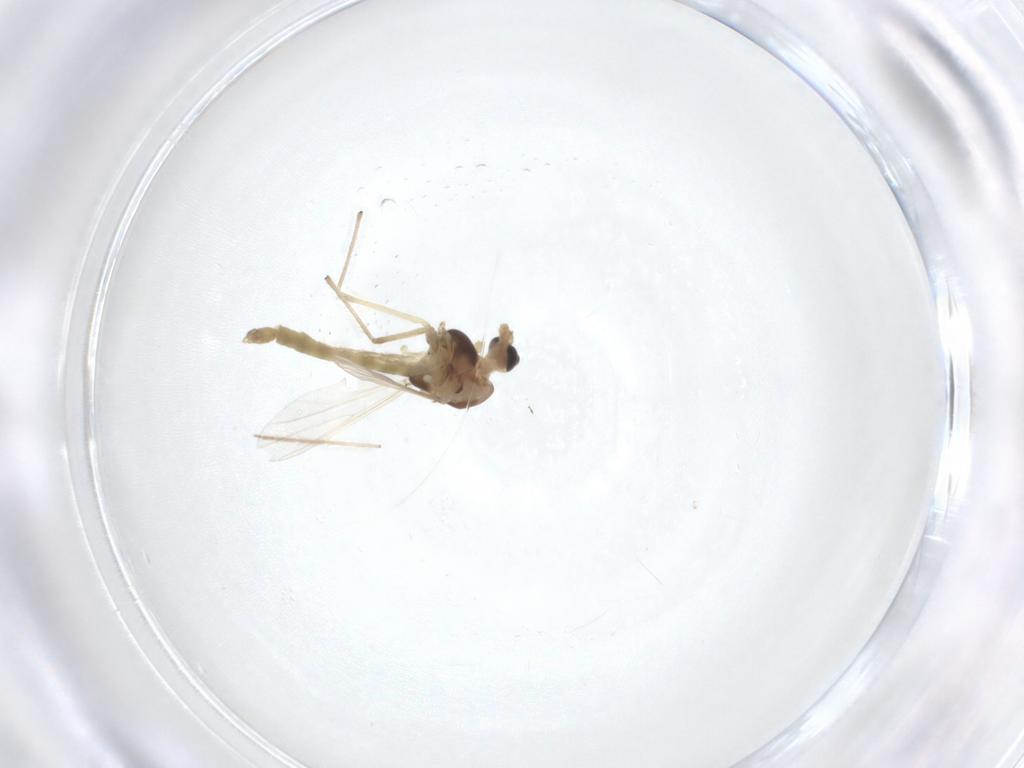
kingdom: Animalia
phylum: Arthropoda
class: Insecta
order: Diptera
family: Chironomidae
